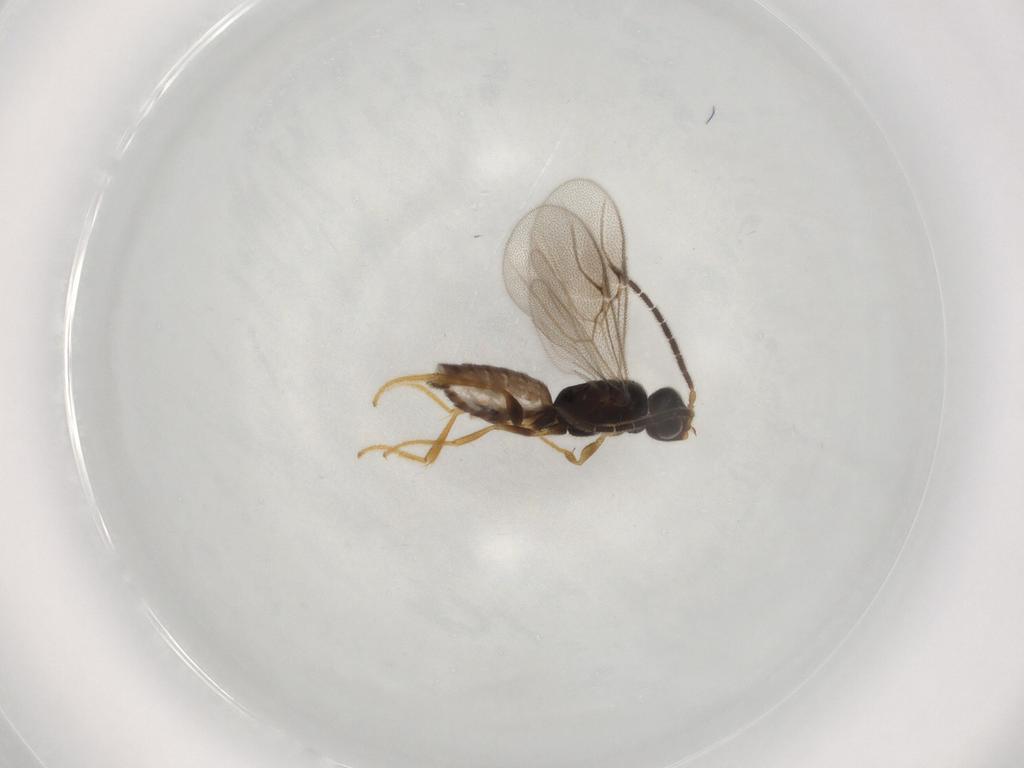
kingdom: Animalia
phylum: Arthropoda
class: Insecta
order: Hymenoptera
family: Dryinidae
